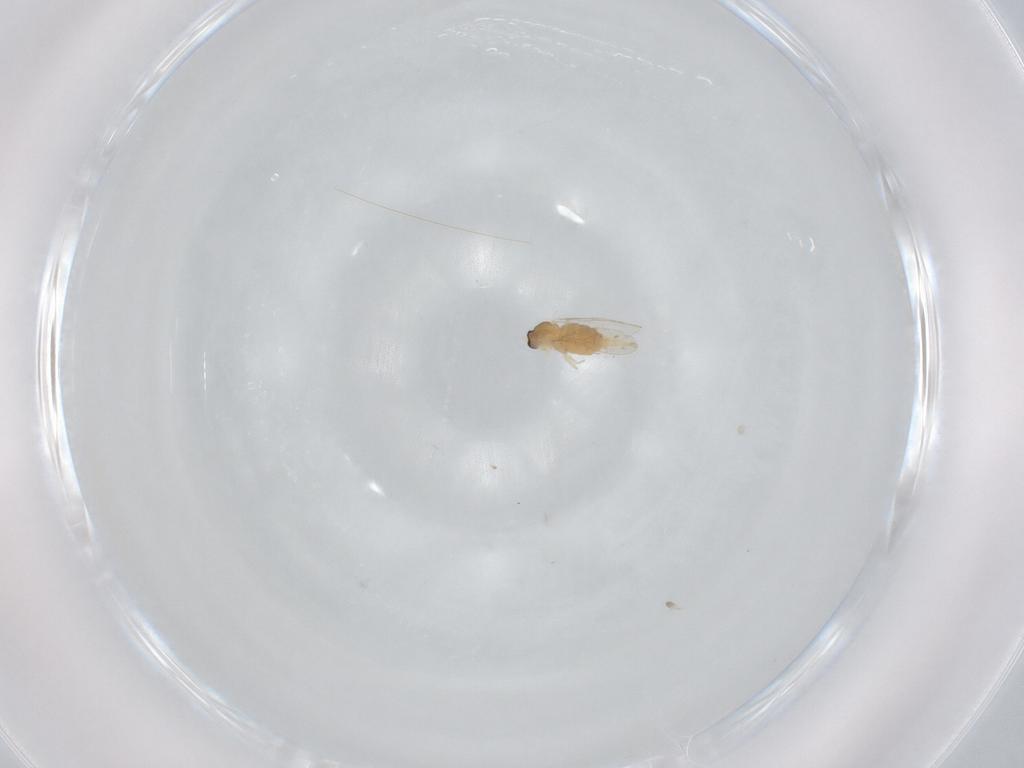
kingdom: Animalia
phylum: Arthropoda
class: Insecta
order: Diptera
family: Cecidomyiidae
